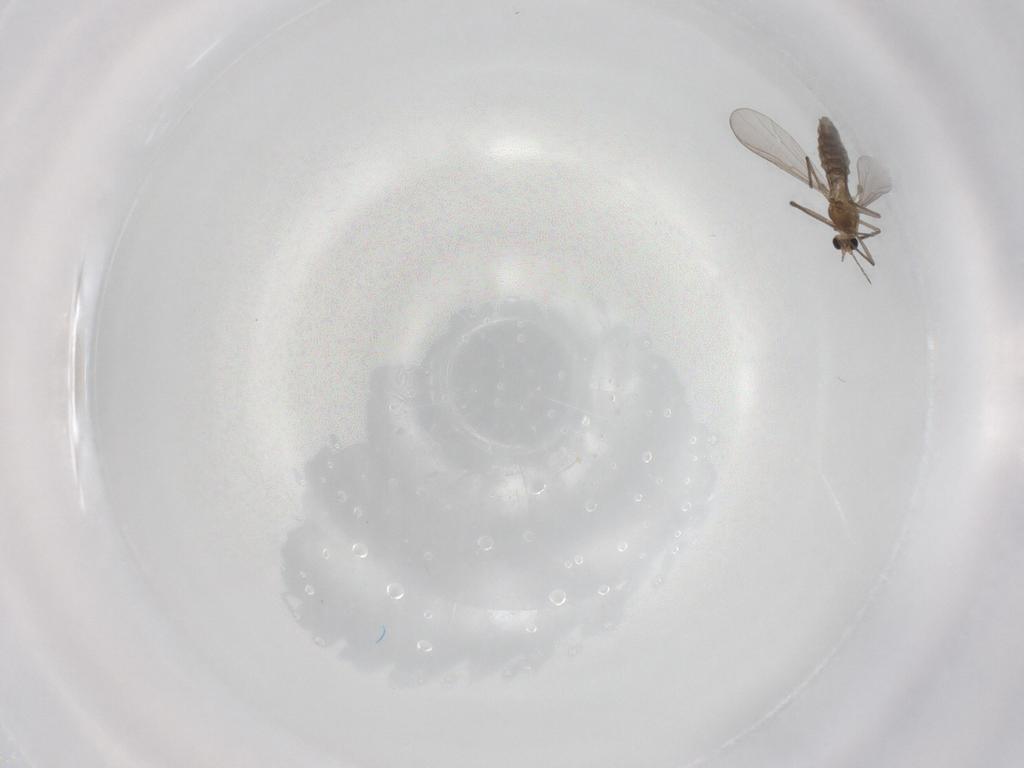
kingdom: Animalia
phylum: Arthropoda
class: Insecta
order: Diptera
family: Chironomidae
